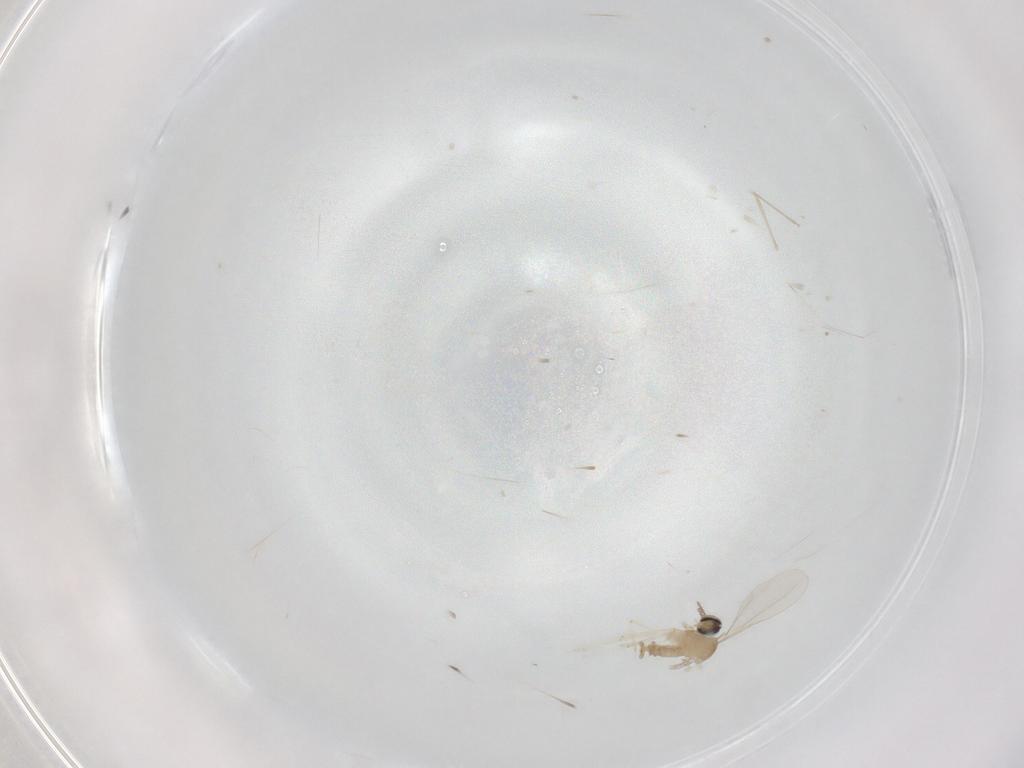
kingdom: Animalia
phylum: Arthropoda
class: Insecta
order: Diptera
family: Cecidomyiidae
